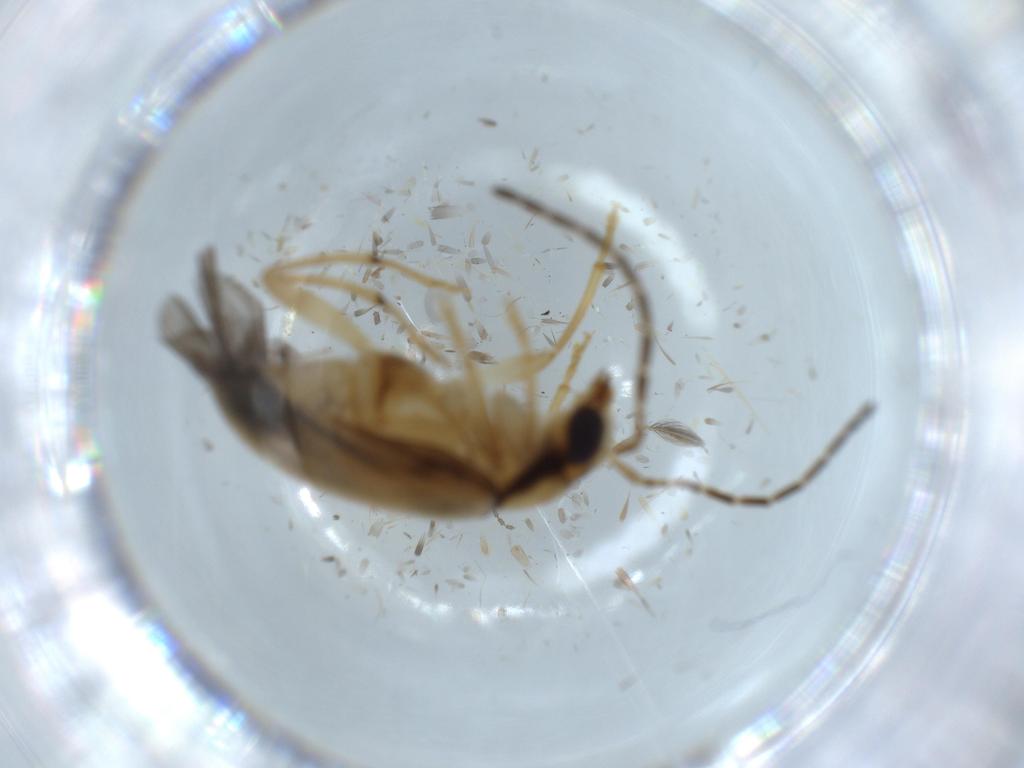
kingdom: Animalia
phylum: Arthropoda
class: Insecta
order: Coleoptera
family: Chrysomelidae
